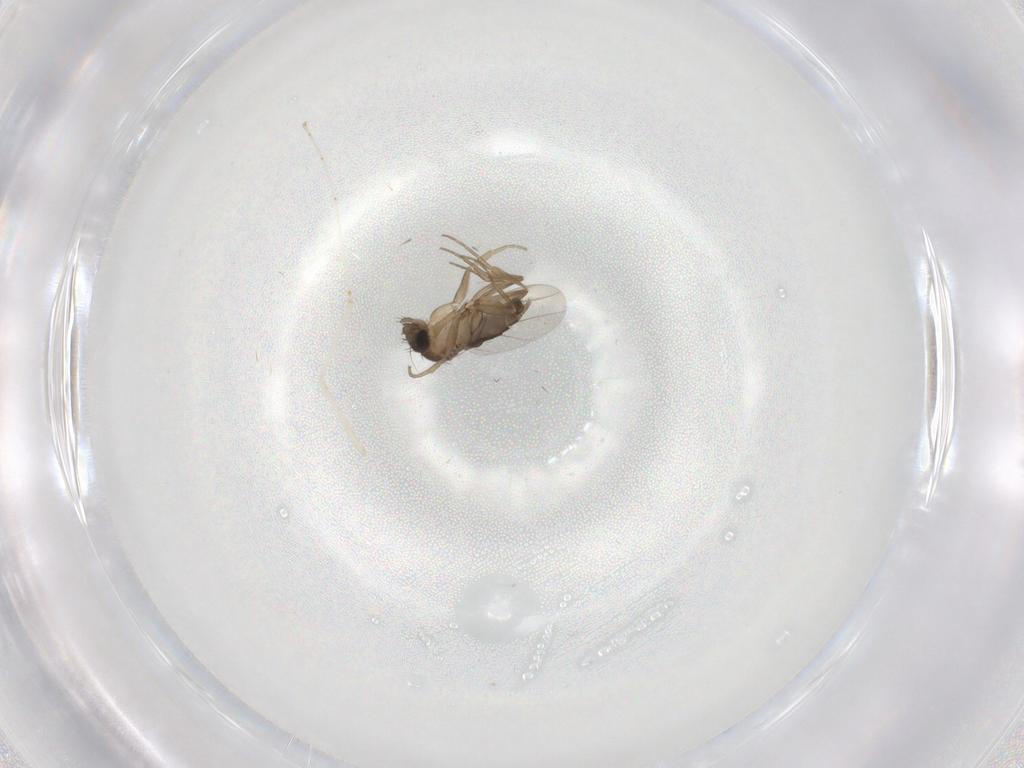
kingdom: Animalia
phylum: Arthropoda
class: Insecta
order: Diptera
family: Phoridae
